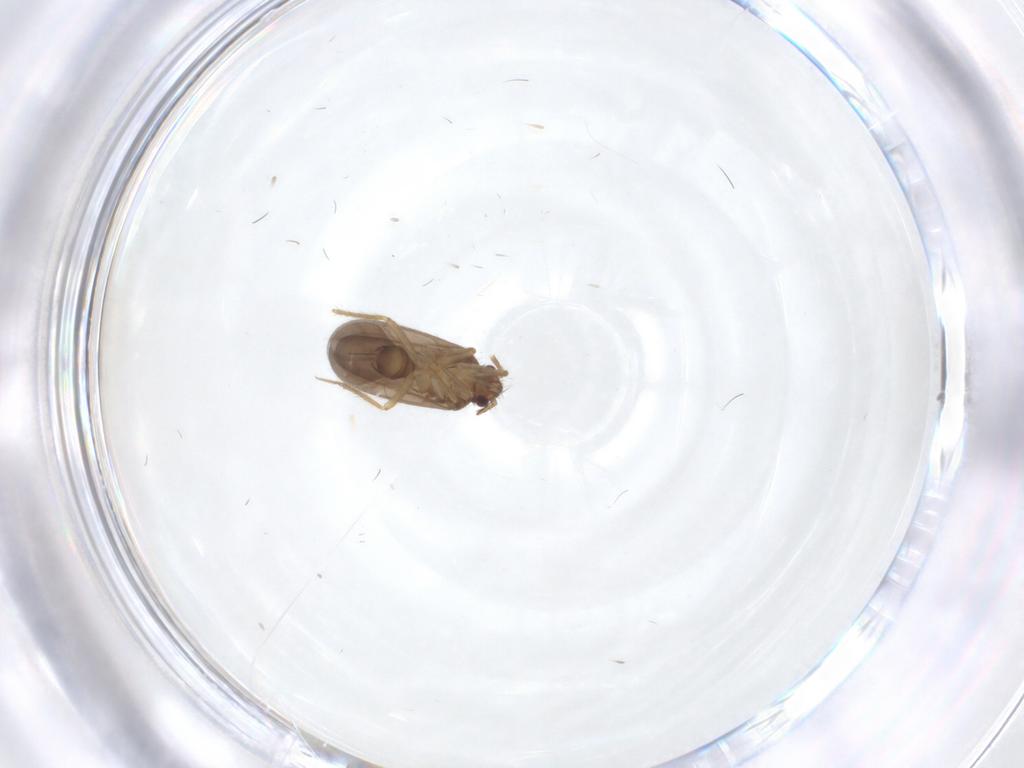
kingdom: Animalia
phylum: Arthropoda
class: Insecta
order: Hemiptera
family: Ceratocombidae
